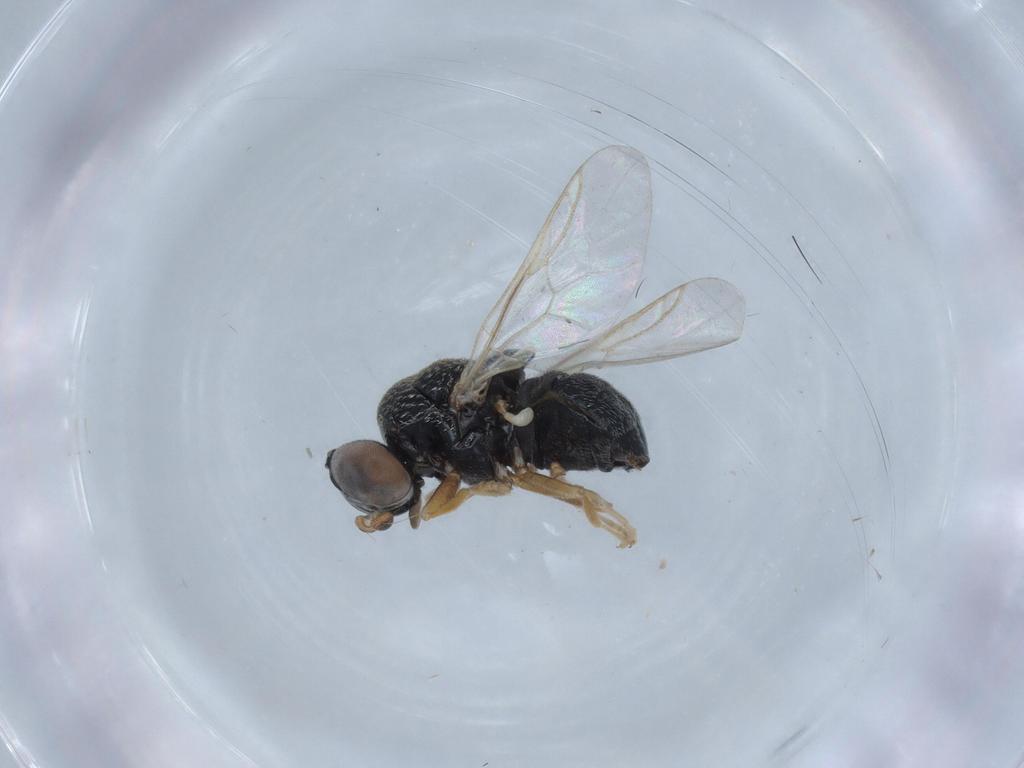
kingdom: Animalia
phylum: Arthropoda
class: Insecta
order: Diptera
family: Stratiomyidae
